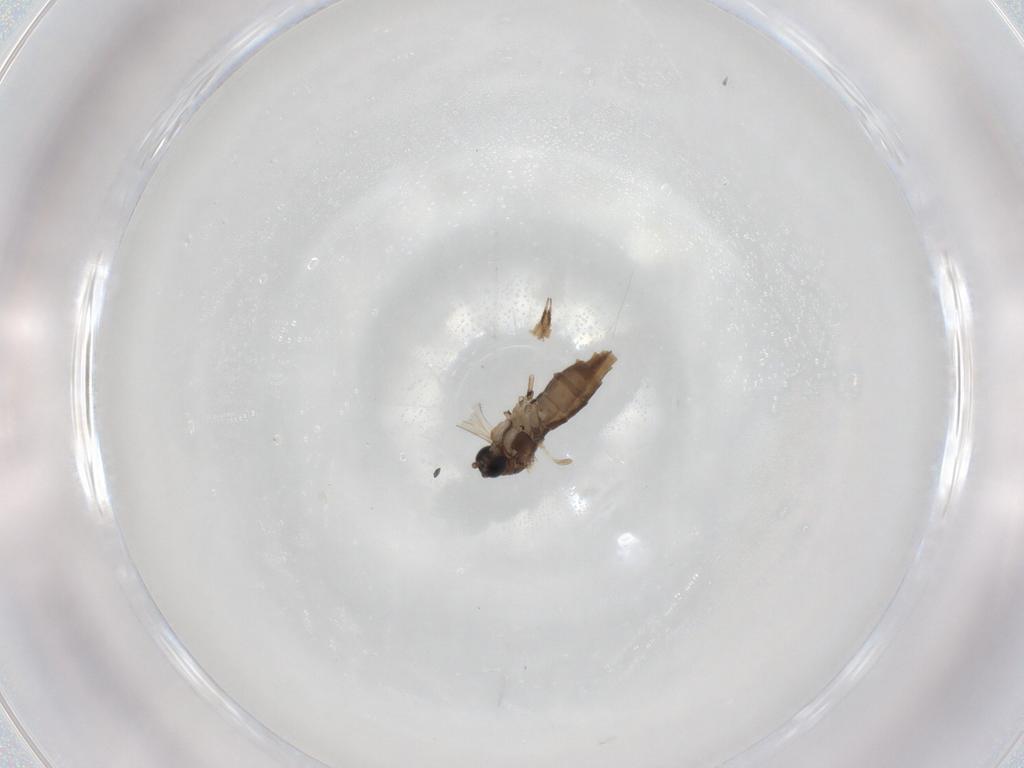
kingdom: Animalia
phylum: Arthropoda
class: Insecta
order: Diptera
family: Sciaridae
